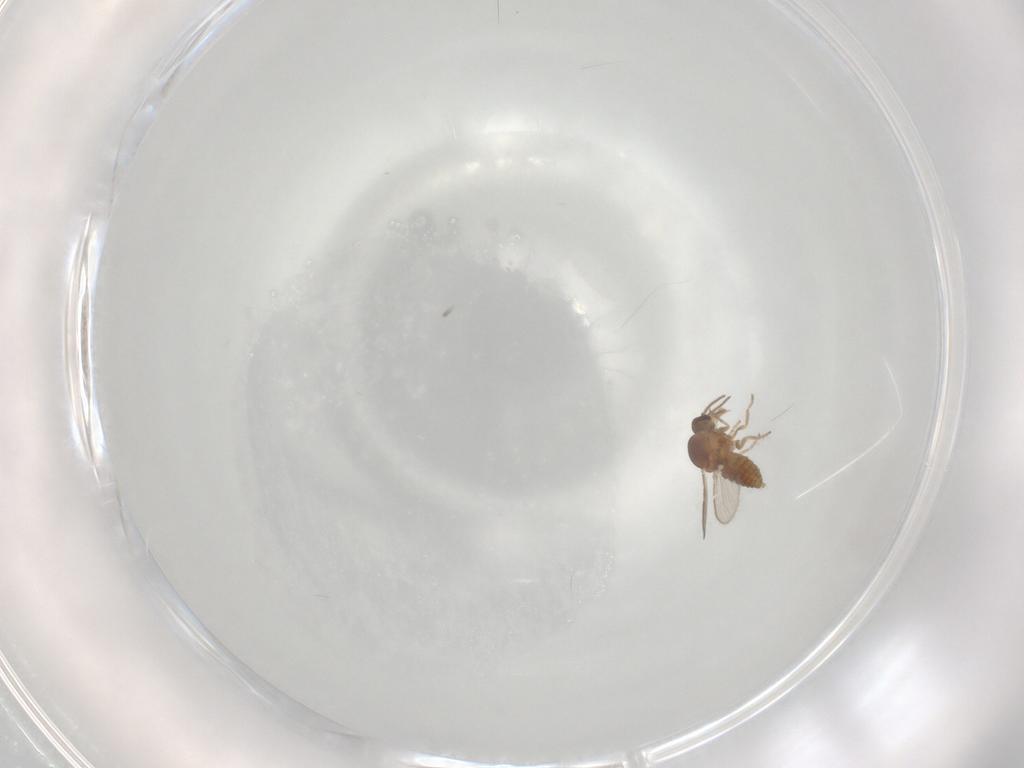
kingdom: Animalia
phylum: Arthropoda
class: Insecta
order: Diptera
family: Ceratopogonidae
